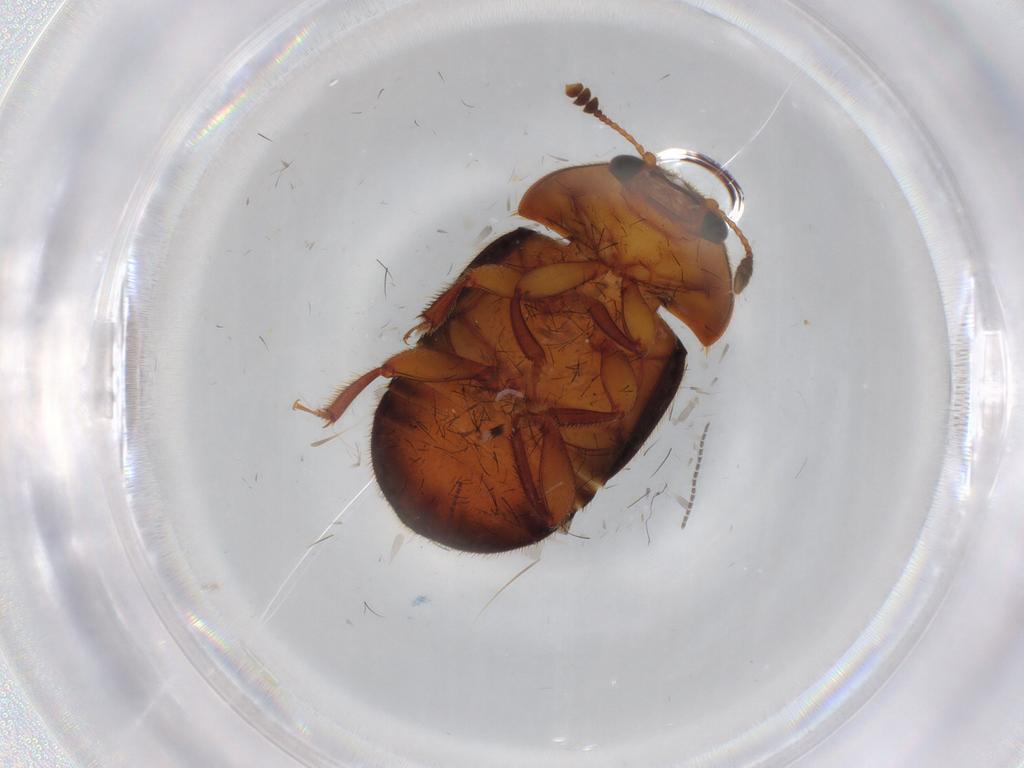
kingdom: Animalia
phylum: Arthropoda
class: Insecta
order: Coleoptera
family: Nitidulidae
